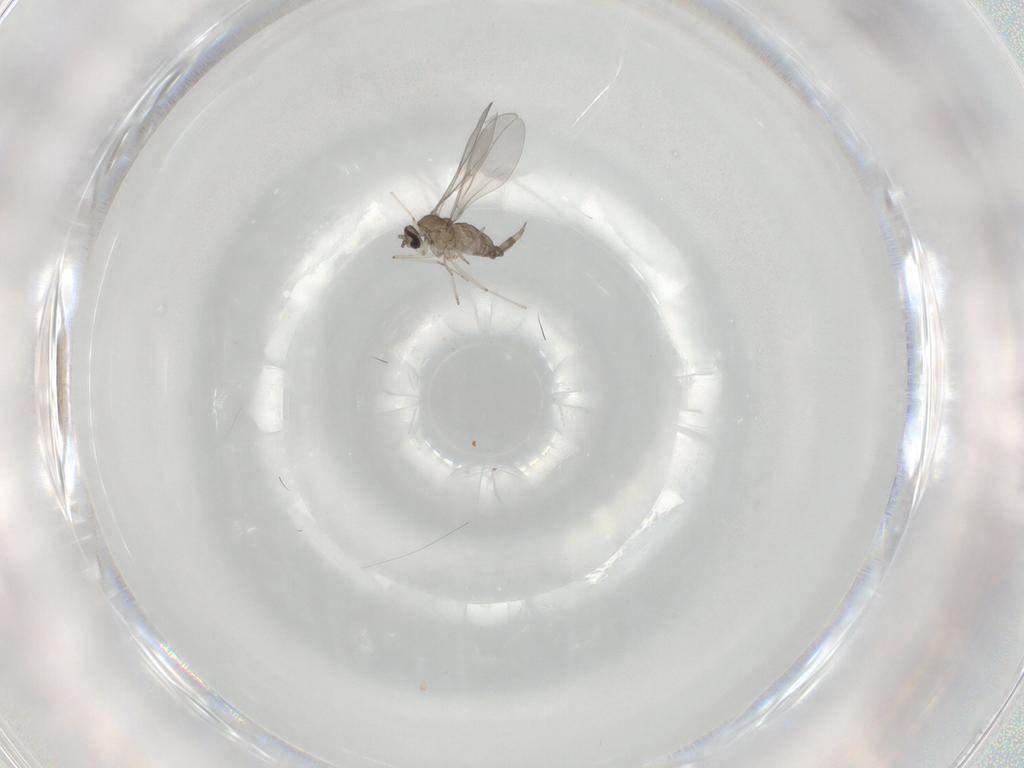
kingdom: Animalia
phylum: Arthropoda
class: Insecta
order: Diptera
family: Cecidomyiidae
